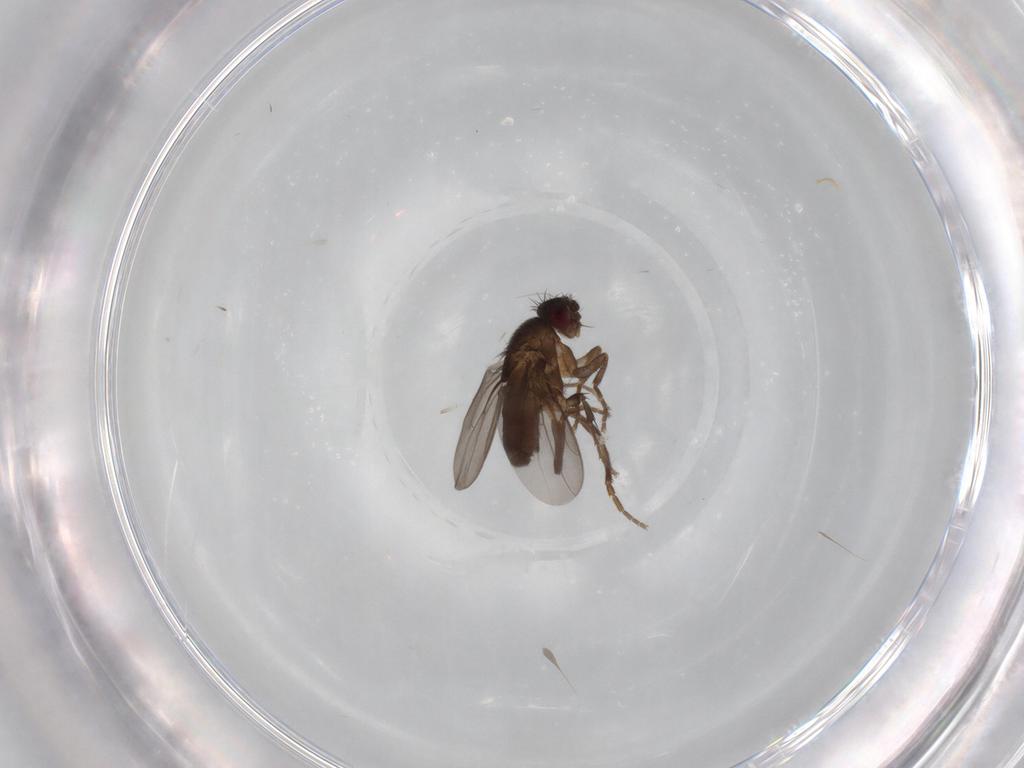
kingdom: Animalia
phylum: Arthropoda
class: Insecta
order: Diptera
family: Sphaeroceridae
